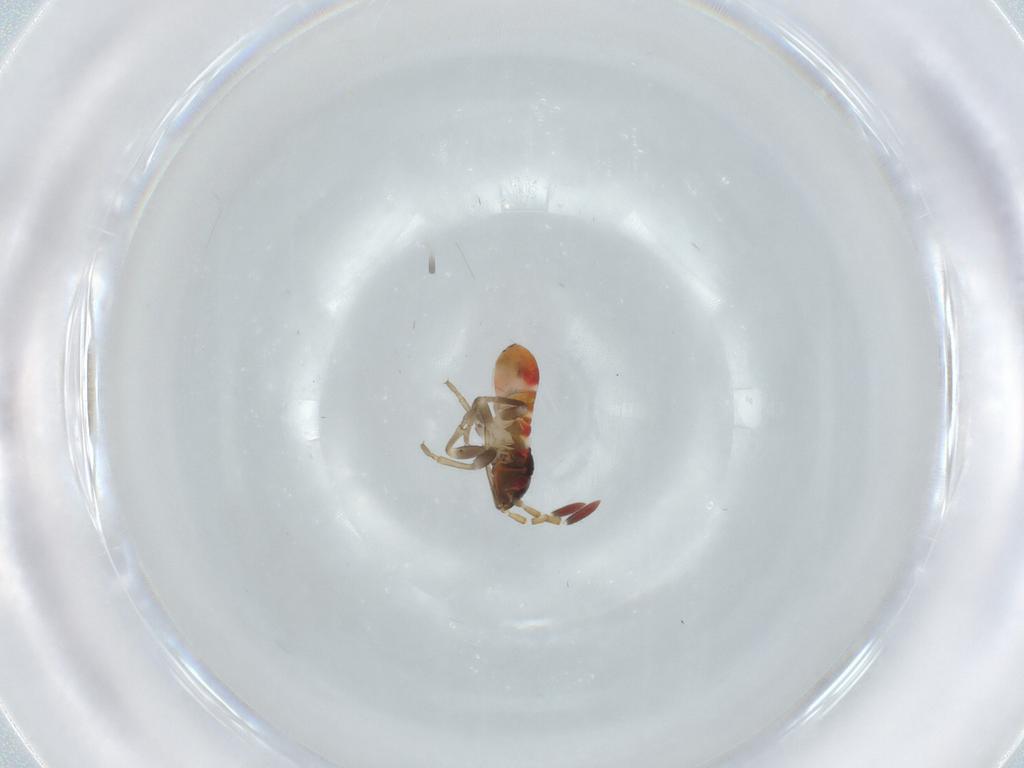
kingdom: Animalia
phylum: Arthropoda
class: Insecta
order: Hemiptera
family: Rhyparochromidae
